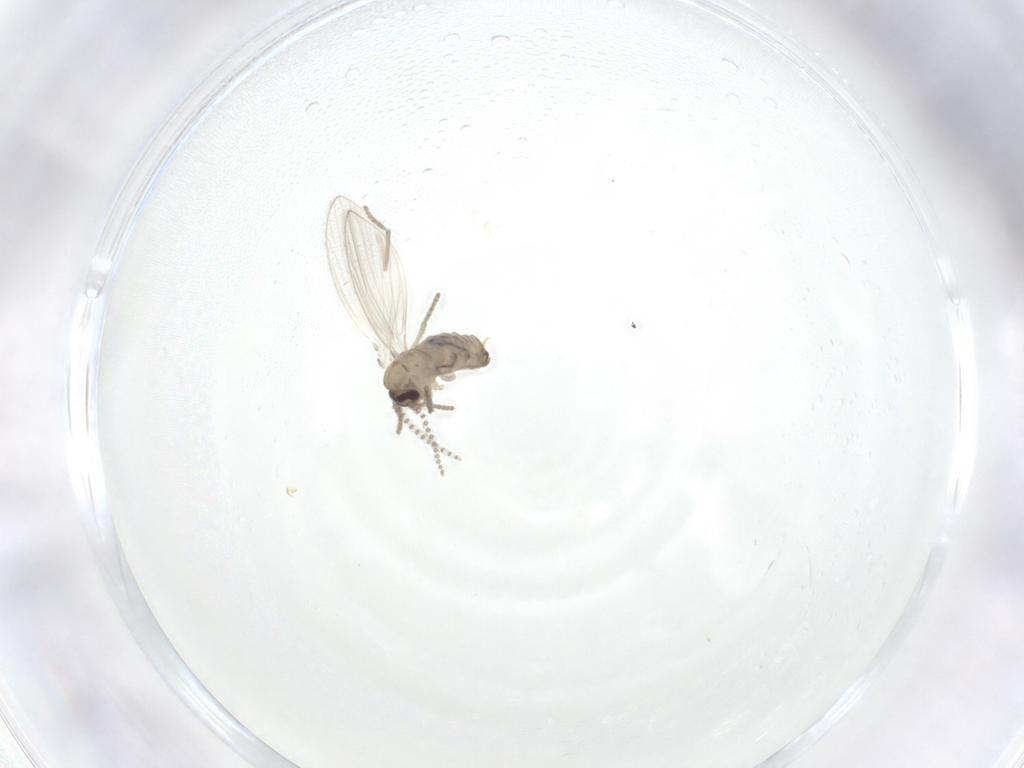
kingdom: Animalia
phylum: Arthropoda
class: Insecta
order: Diptera
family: Psychodidae
